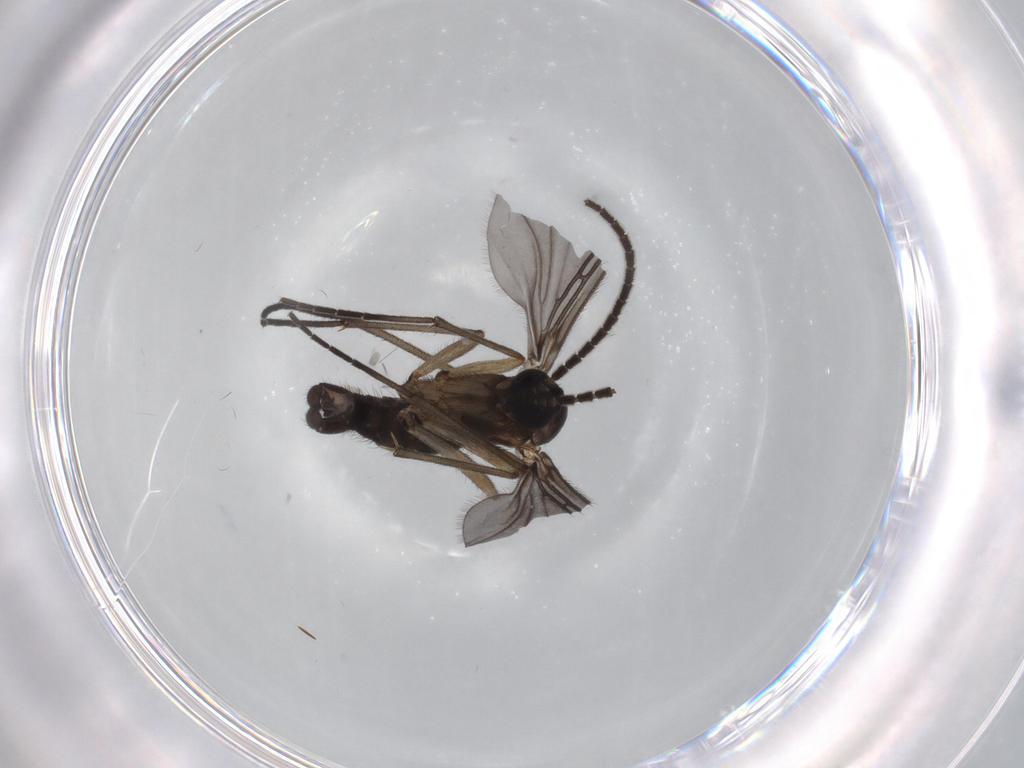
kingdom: Animalia
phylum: Arthropoda
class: Insecta
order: Diptera
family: Sciaridae
